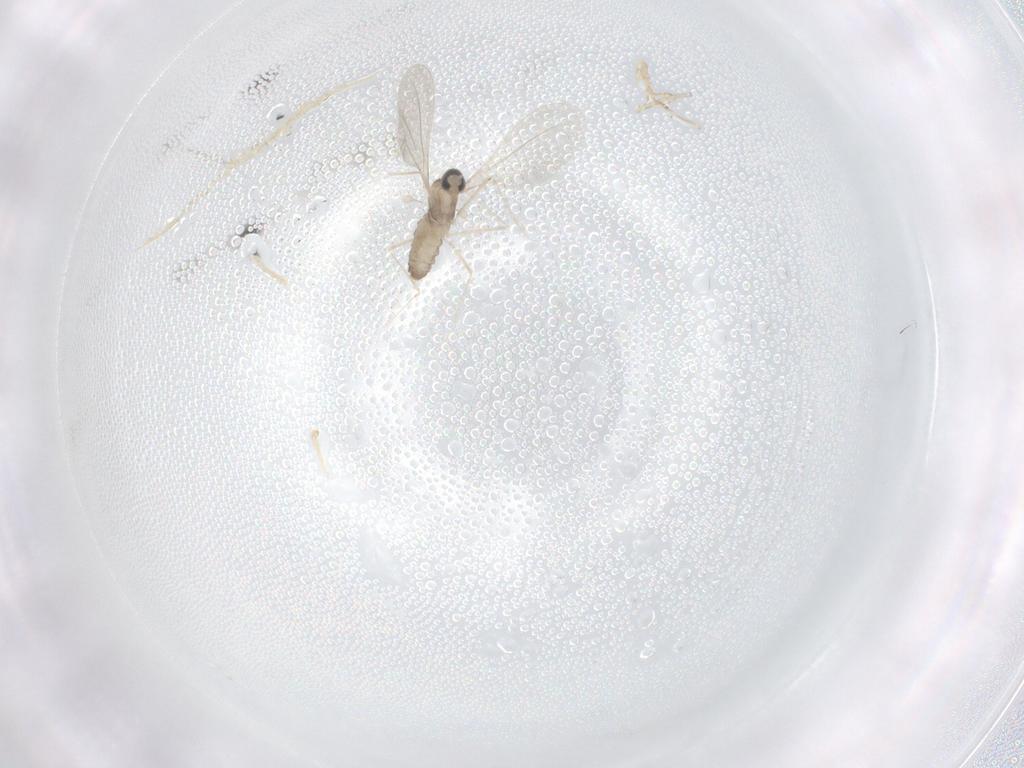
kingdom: Animalia
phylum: Arthropoda
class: Insecta
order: Diptera
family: Cecidomyiidae
